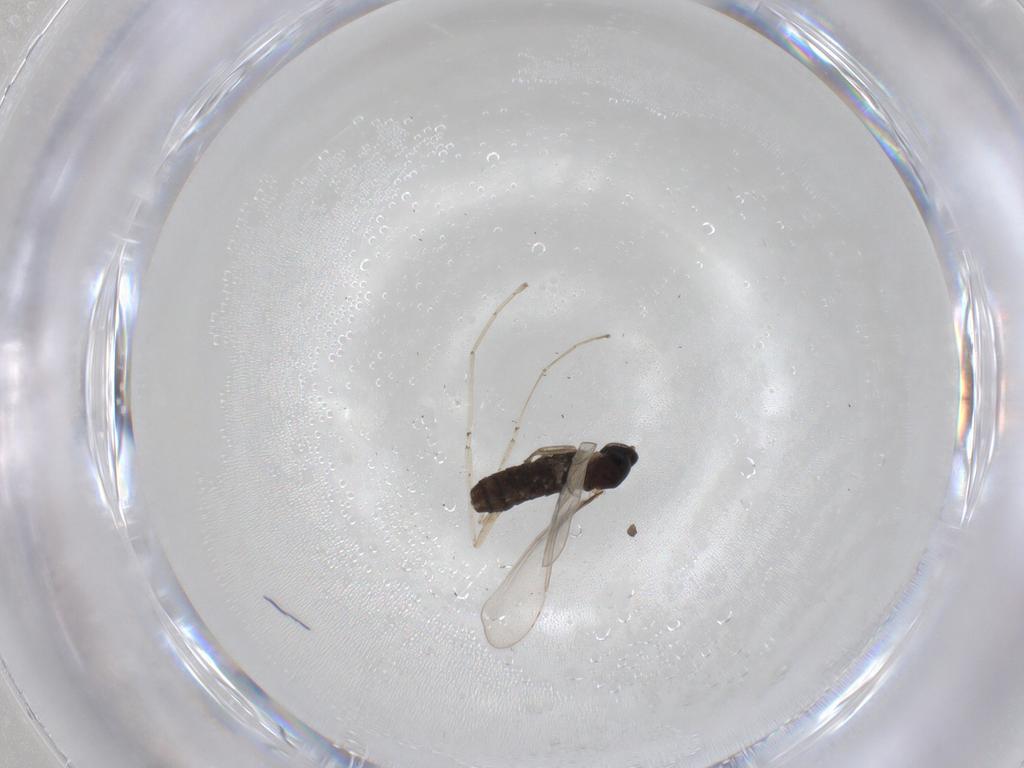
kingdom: Animalia
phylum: Arthropoda
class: Insecta
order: Diptera
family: Cecidomyiidae
